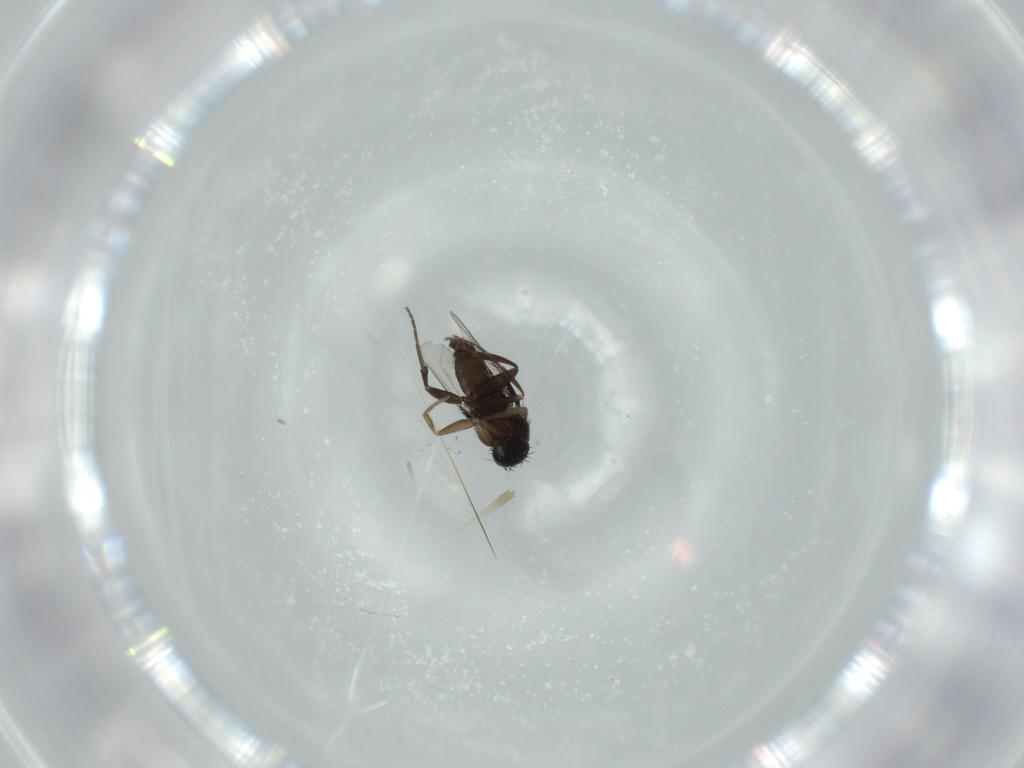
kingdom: Animalia
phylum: Arthropoda
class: Insecta
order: Diptera
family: Phoridae
